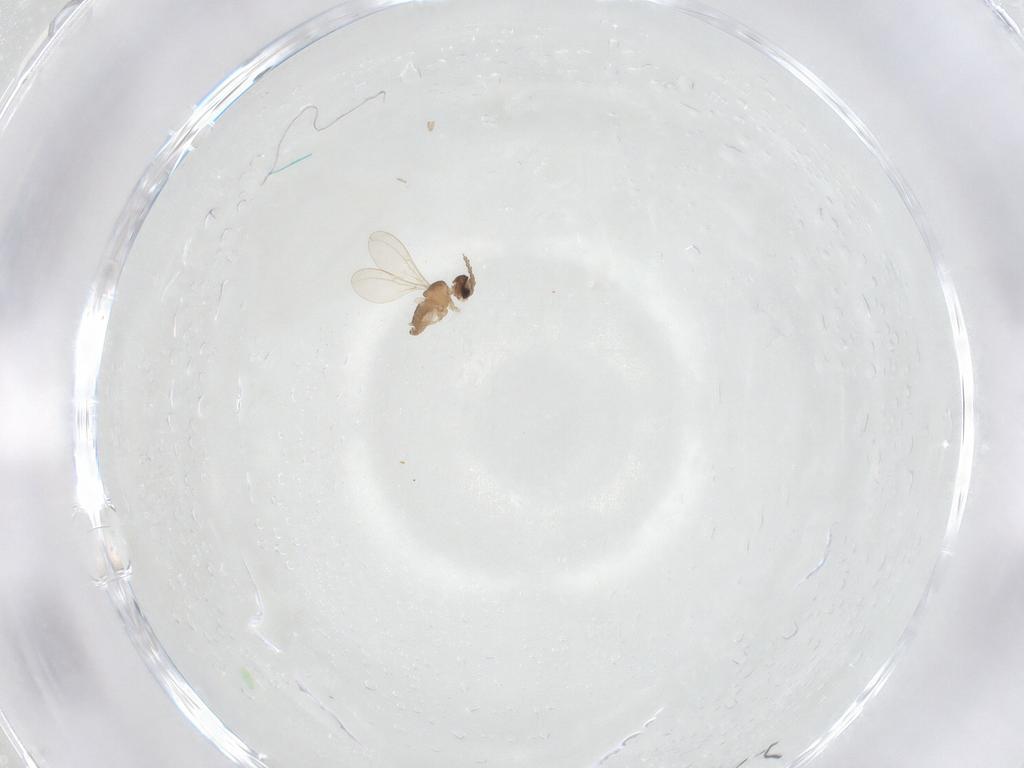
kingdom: Animalia
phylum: Arthropoda
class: Insecta
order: Diptera
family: Cecidomyiidae
